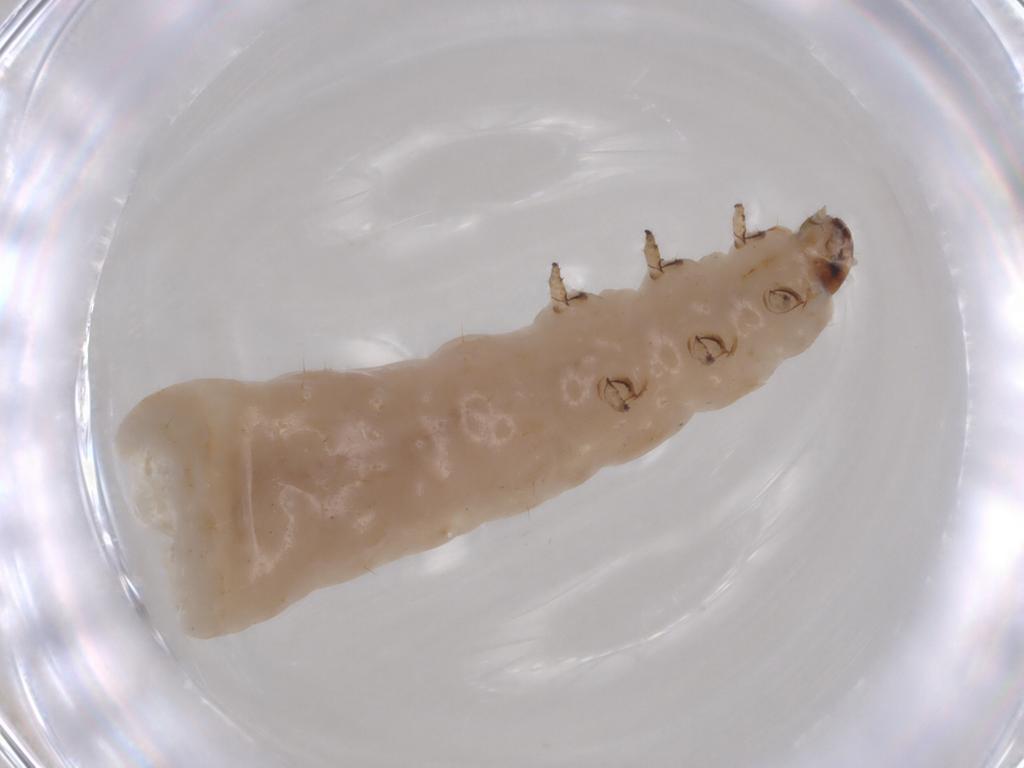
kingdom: Animalia
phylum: Arthropoda
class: Insecta
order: Coleoptera
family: Chrysomelidae
